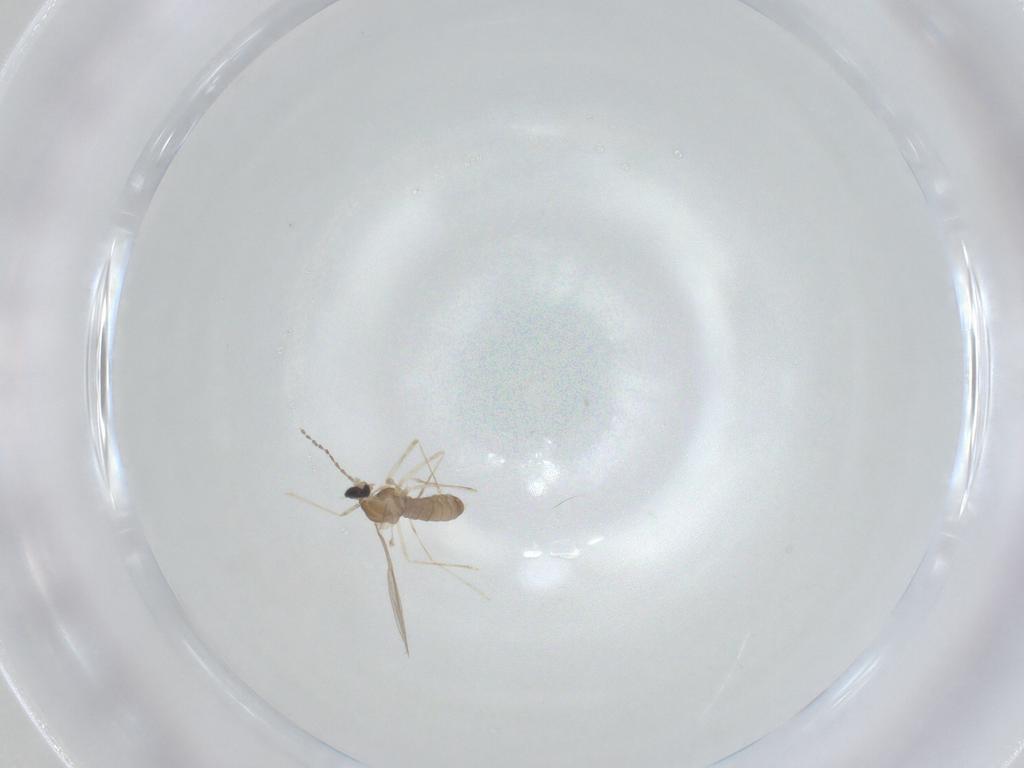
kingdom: Animalia
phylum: Arthropoda
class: Insecta
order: Diptera
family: Cecidomyiidae
